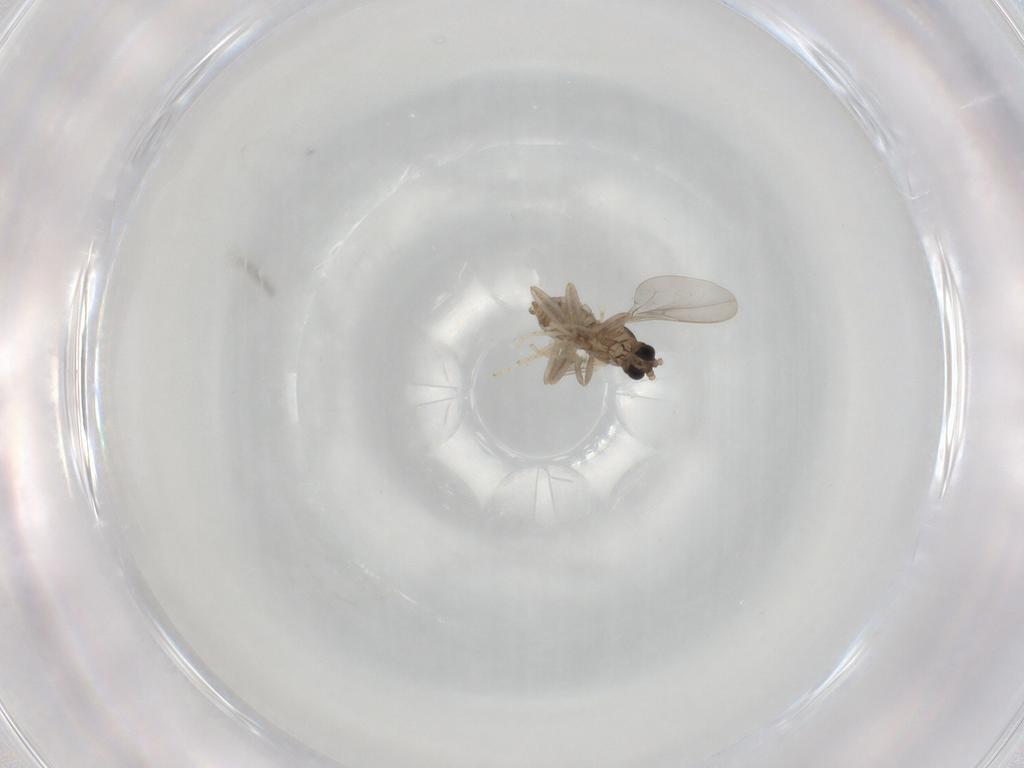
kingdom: Animalia
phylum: Arthropoda
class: Insecta
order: Diptera
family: Cecidomyiidae
